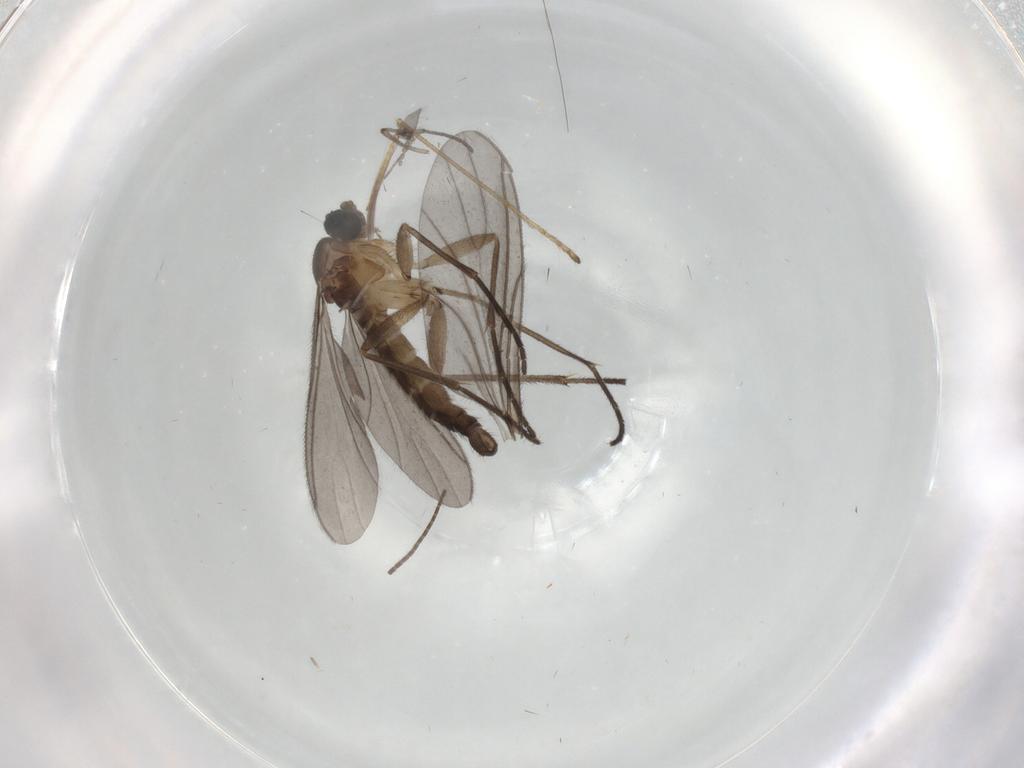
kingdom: Animalia
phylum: Arthropoda
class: Insecta
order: Diptera
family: Sciaridae
